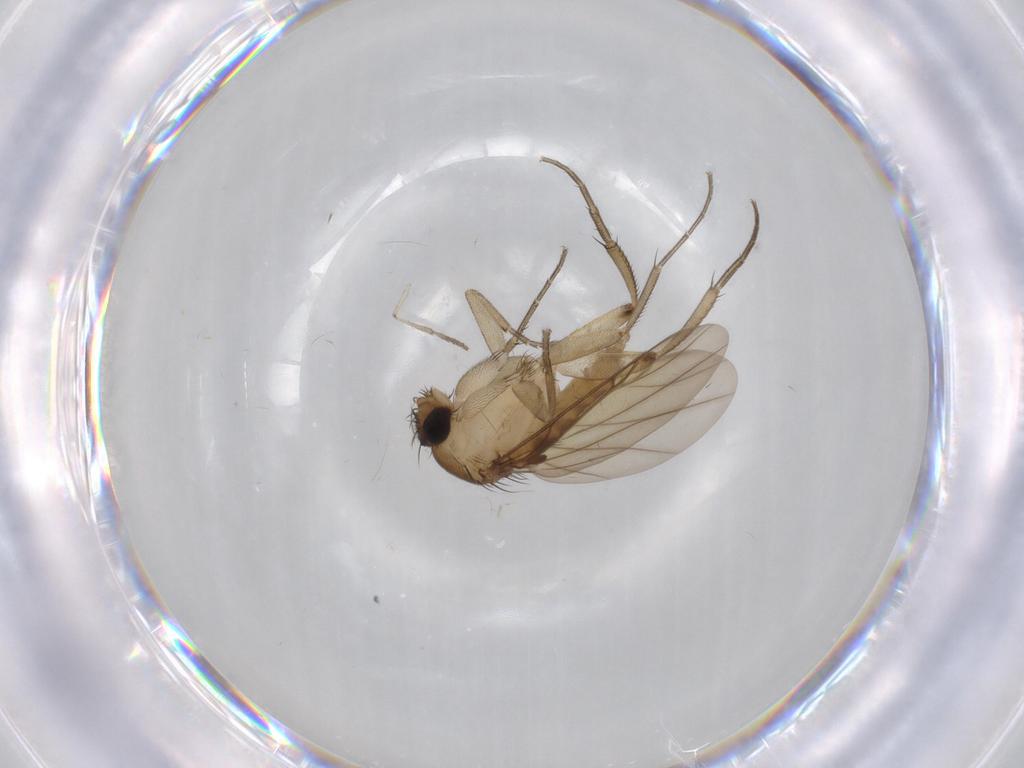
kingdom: Animalia
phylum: Arthropoda
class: Insecta
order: Diptera
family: Phoridae
